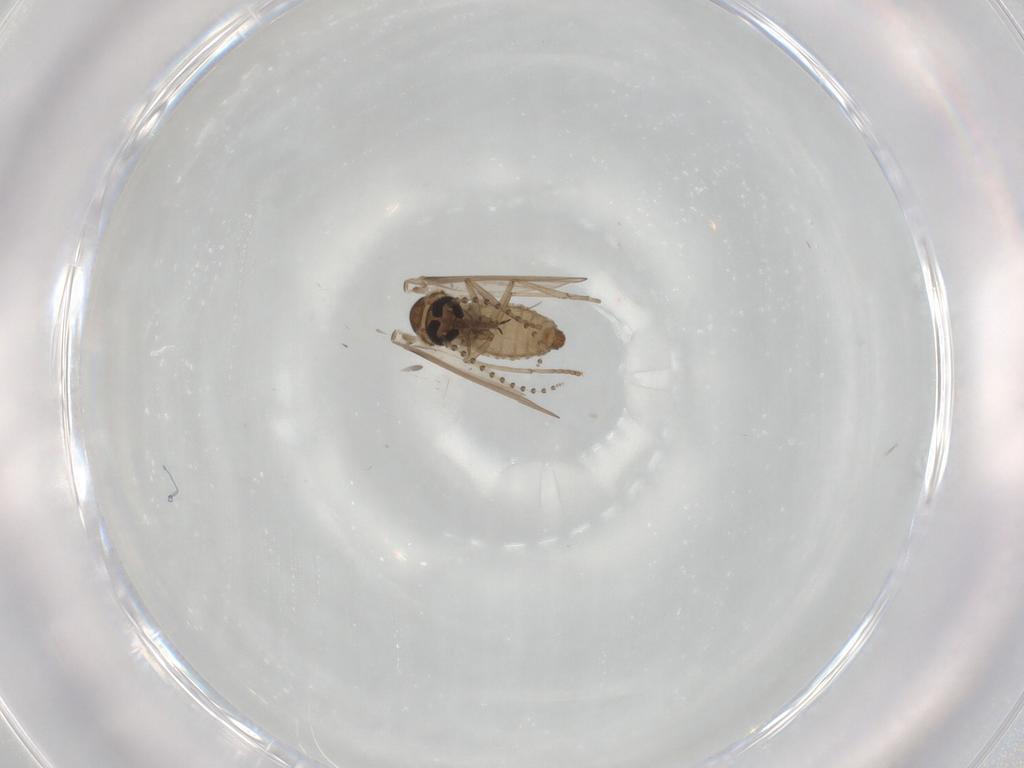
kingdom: Animalia
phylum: Arthropoda
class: Insecta
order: Diptera
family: Psychodidae
